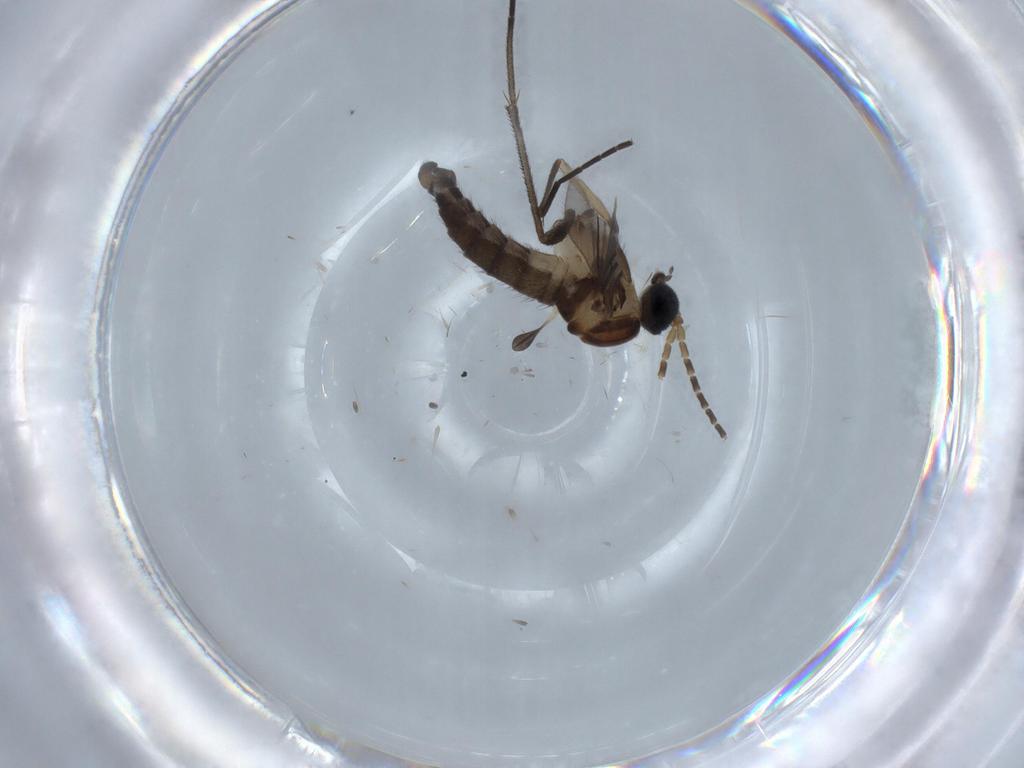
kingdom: Animalia
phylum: Arthropoda
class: Insecta
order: Diptera
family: Sciaridae
